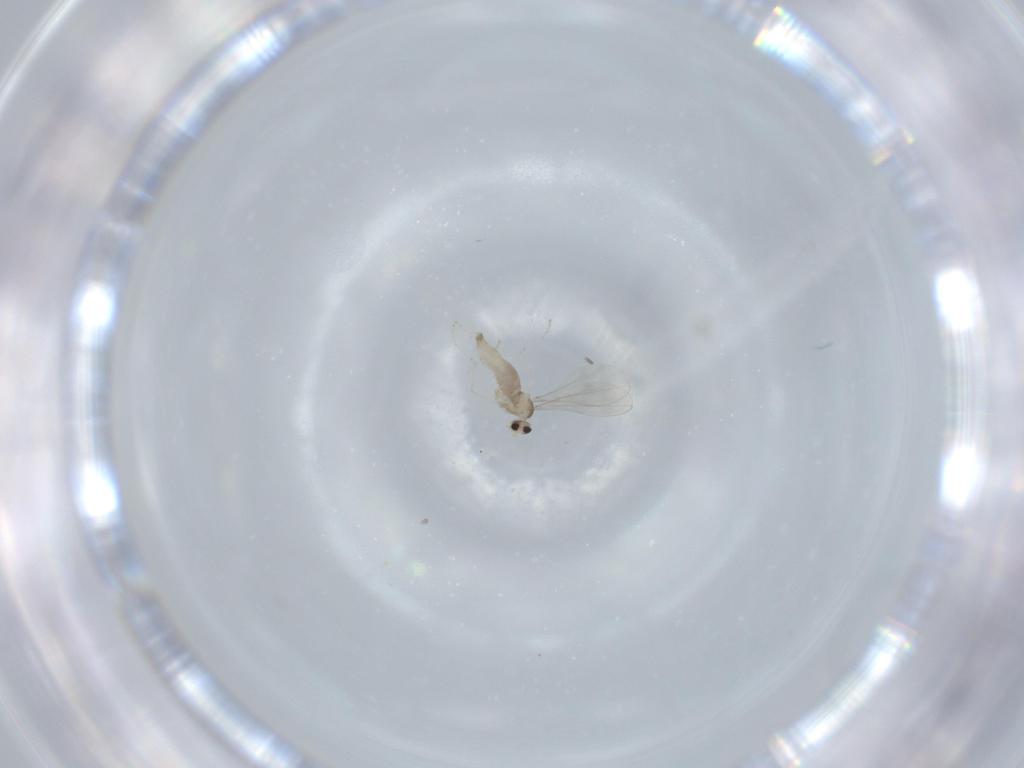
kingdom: Animalia
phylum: Arthropoda
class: Insecta
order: Diptera
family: Cecidomyiidae
